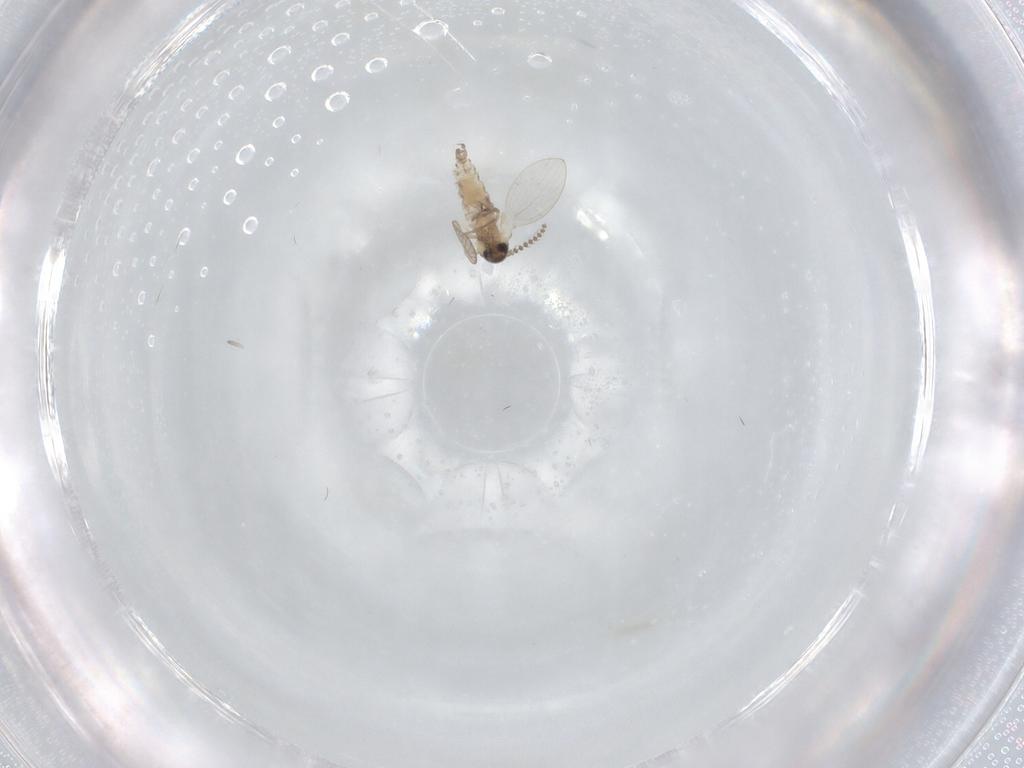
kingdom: Animalia
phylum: Arthropoda
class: Insecta
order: Diptera
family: Psychodidae
